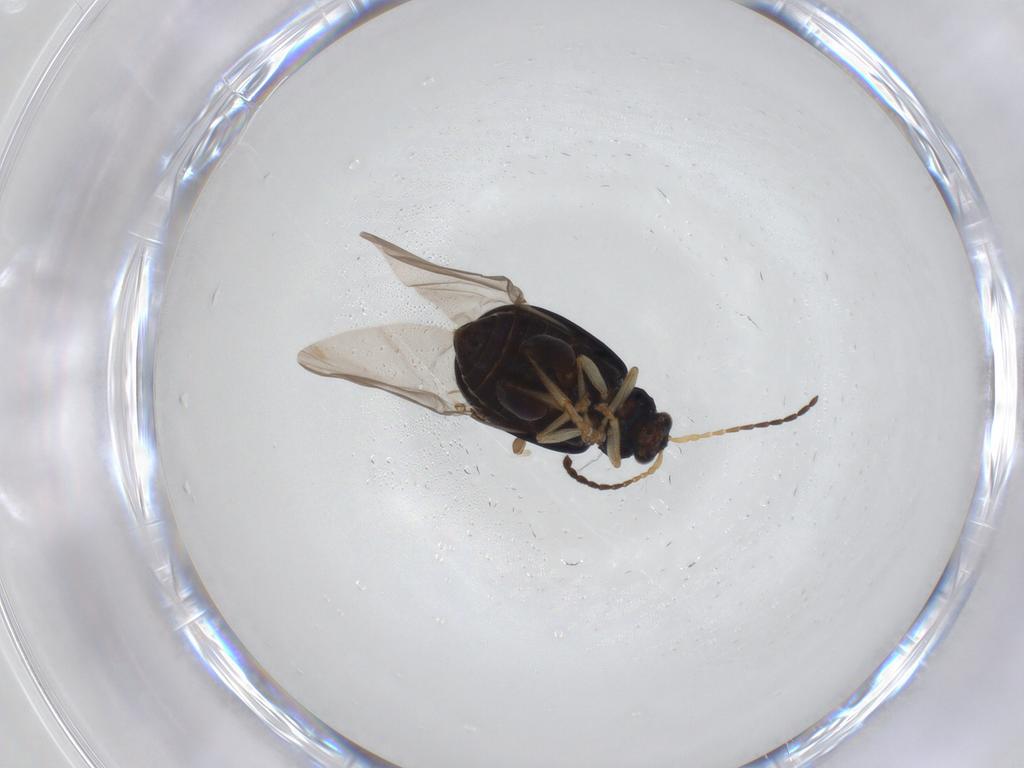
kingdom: Animalia
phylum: Arthropoda
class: Insecta
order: Coleoptera
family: Chrysomelidae
